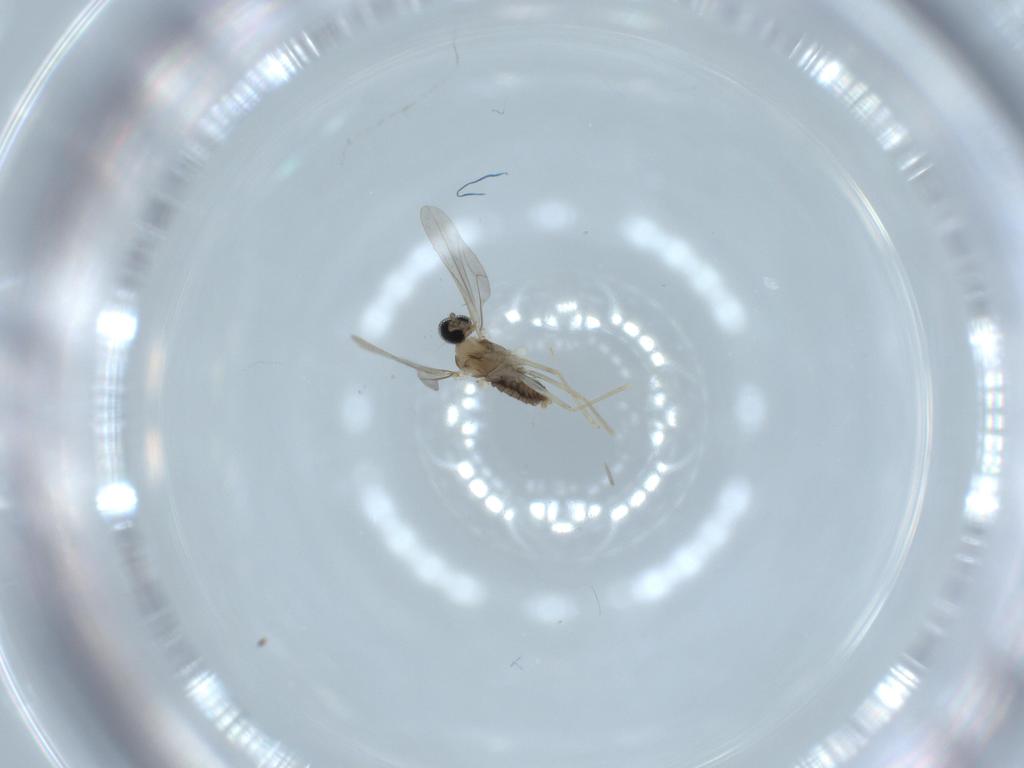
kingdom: Animalia
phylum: Arthropoda
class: Insecta
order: Diptera
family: Cecidomyiidae
